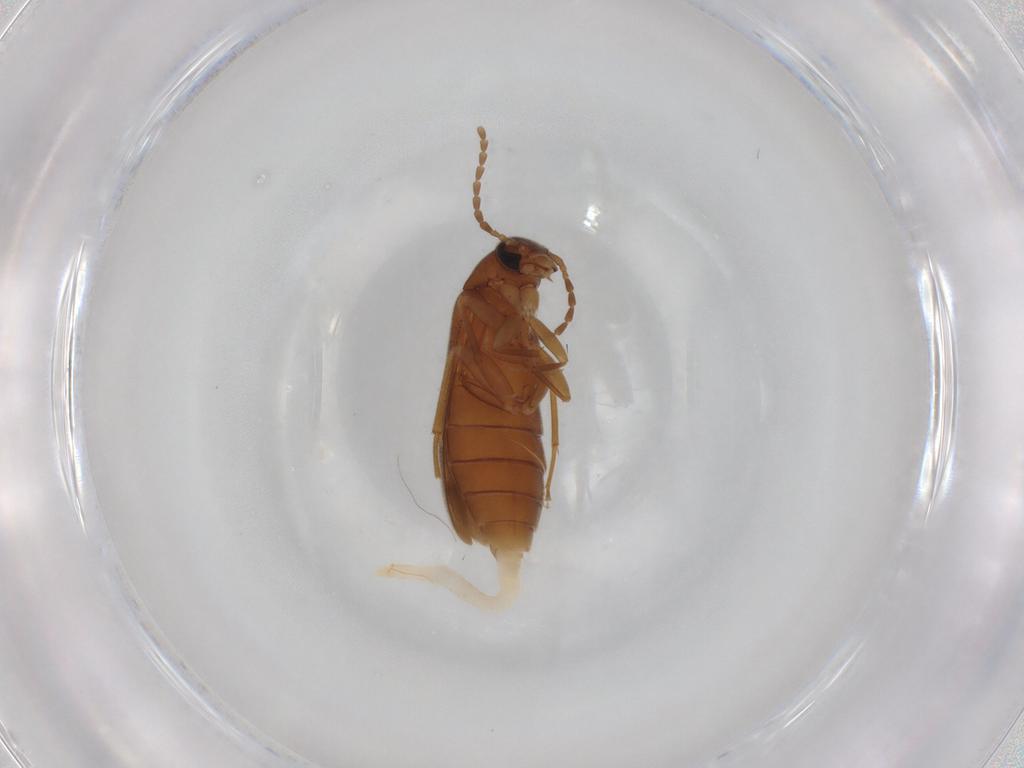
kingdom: Animalia
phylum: Arthropoda
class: Insecta
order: Coleoptera
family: Scraptiidae
